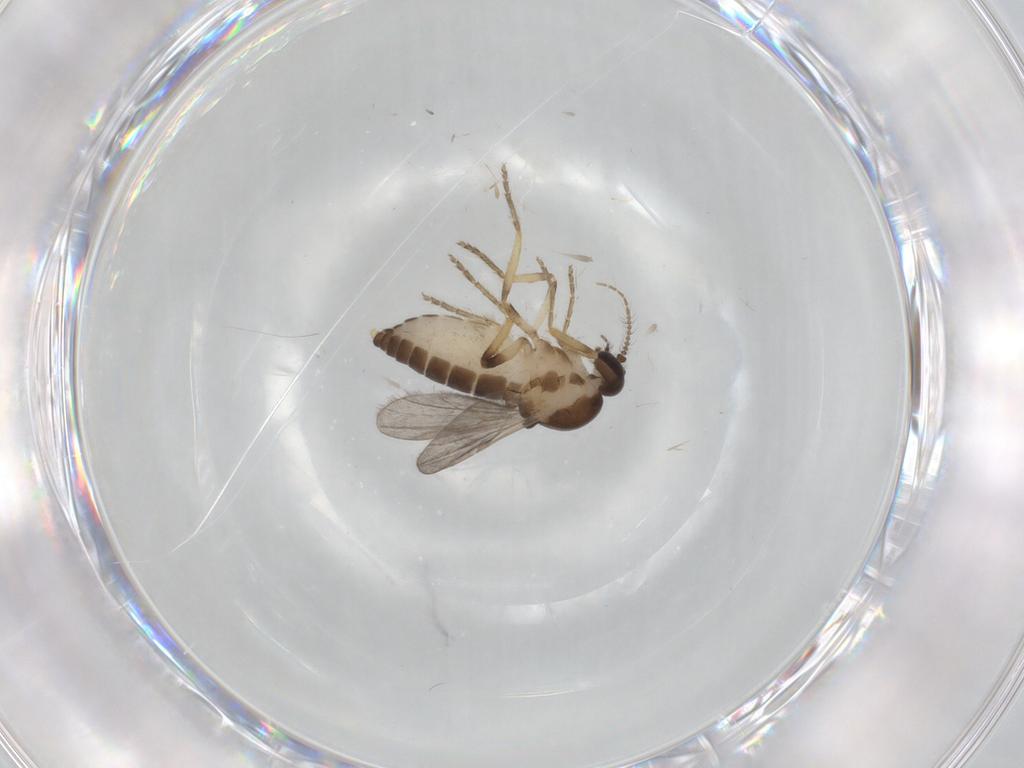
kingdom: Animalia
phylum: Arthropoda
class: Insecta
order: Diptera
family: Ceratopogonidae
